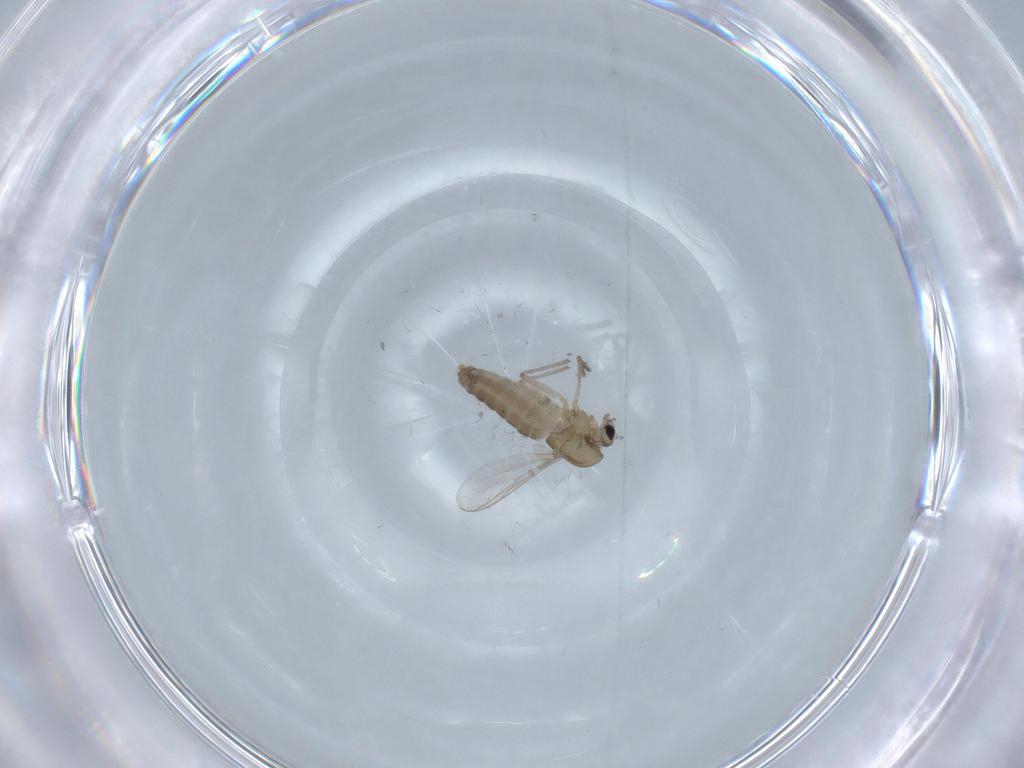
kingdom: Animalia
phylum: Arthropoda
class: Insecta
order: Diptera
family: Chironomidae
